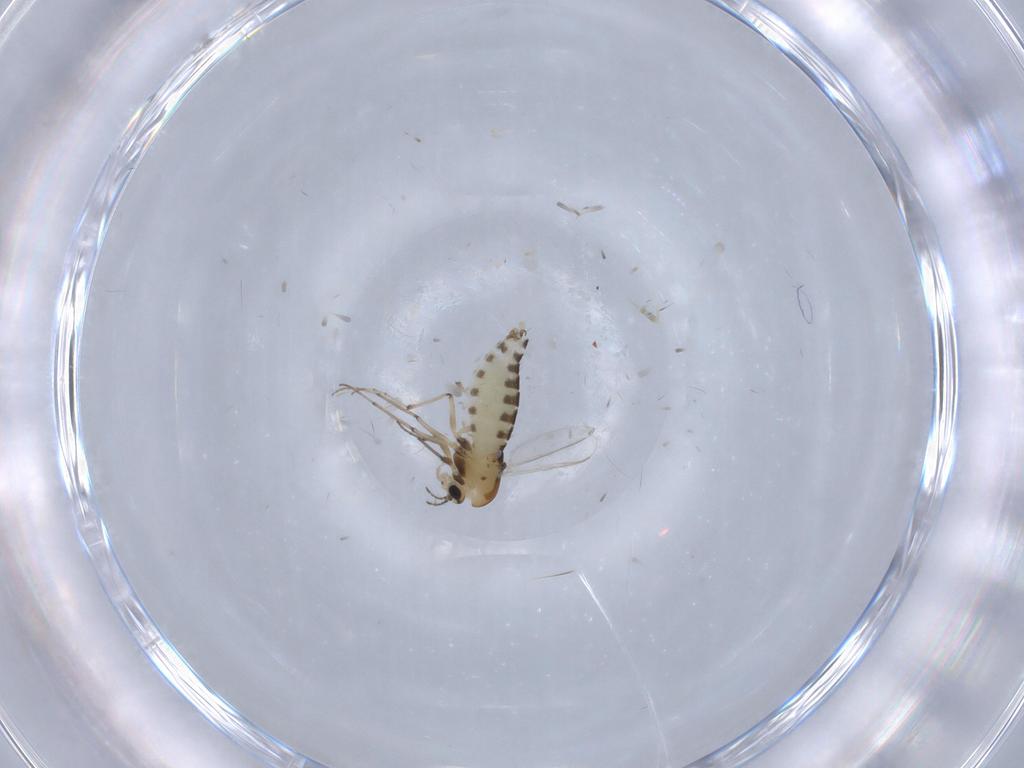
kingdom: Animalia
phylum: Arthropoda
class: Insecta
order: Diptera
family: Chironomidae
